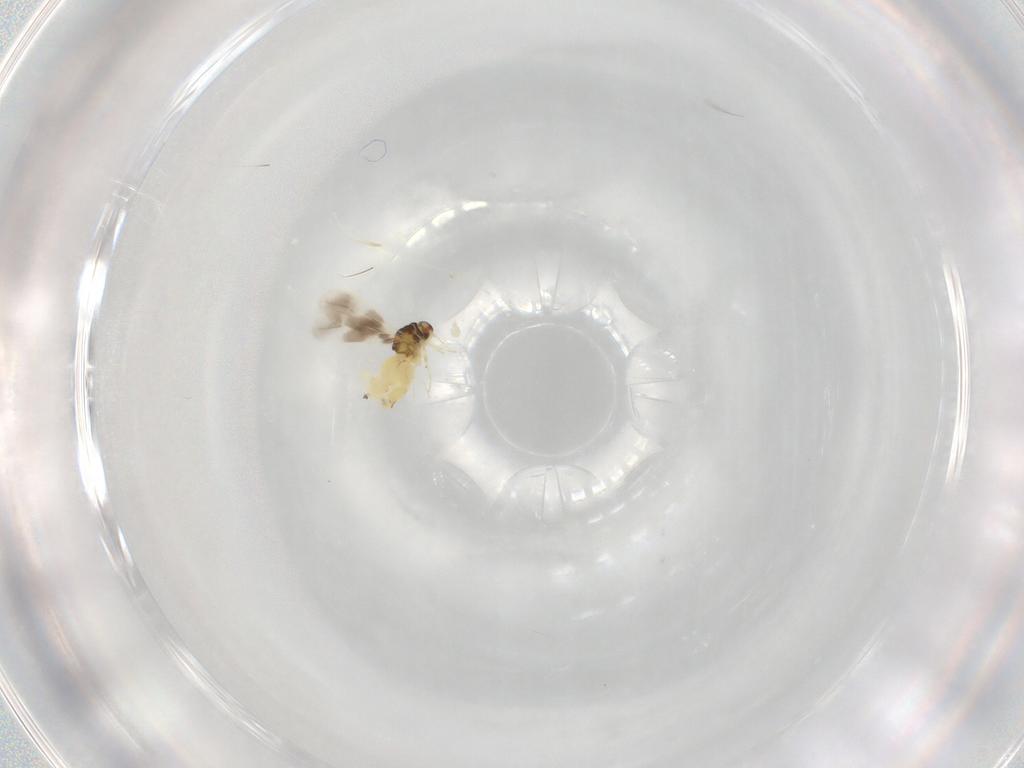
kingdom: Animalia
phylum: Arthropoda
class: Insecta
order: Hemiptera
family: Aleyrodidae
